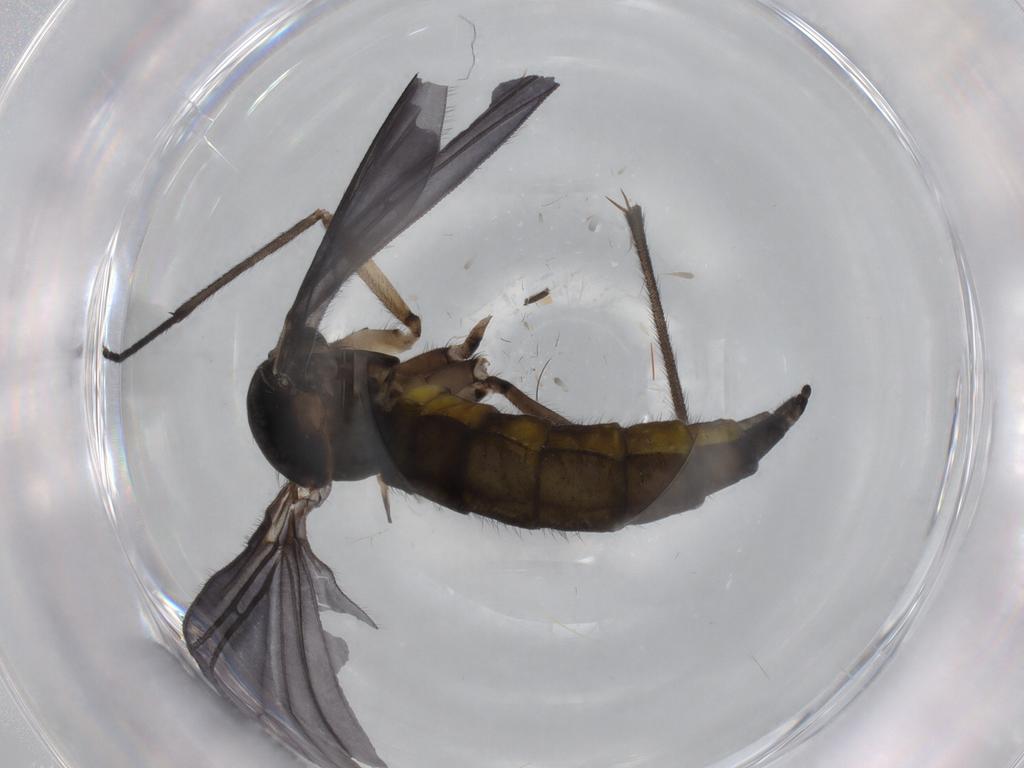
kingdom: Animalia
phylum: Arthropoda
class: Insecta
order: Diptera
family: Sciaridae
